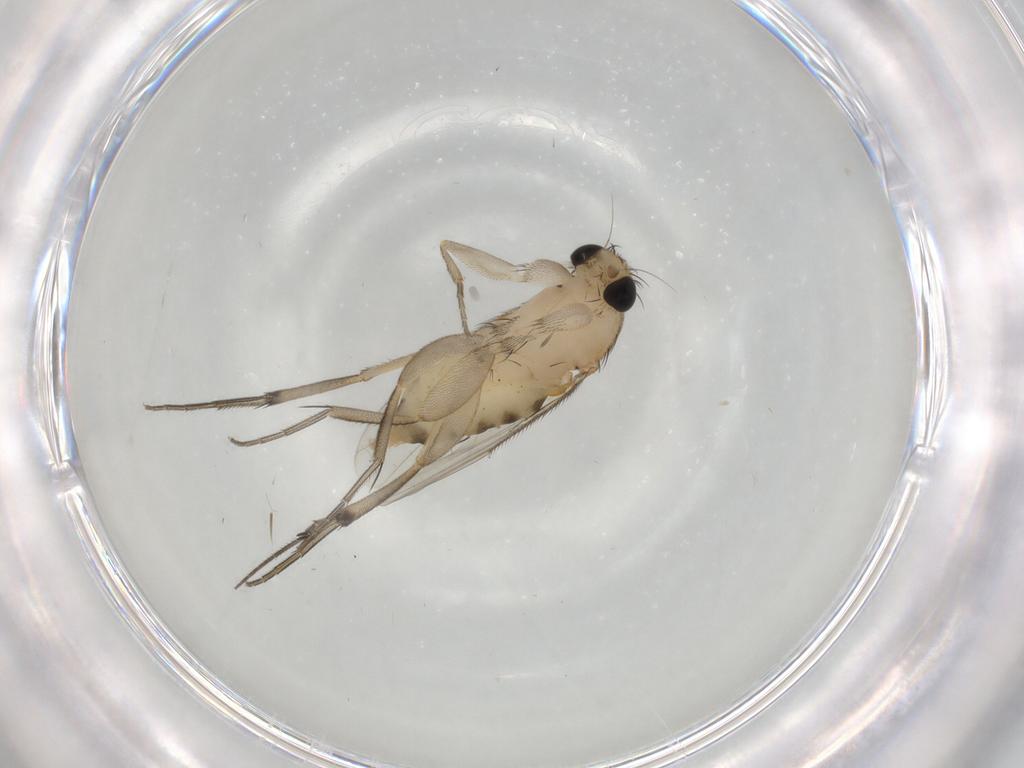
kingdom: Animalia
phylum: Arthropoda
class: Insecta
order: Diptera
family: Phoridae
